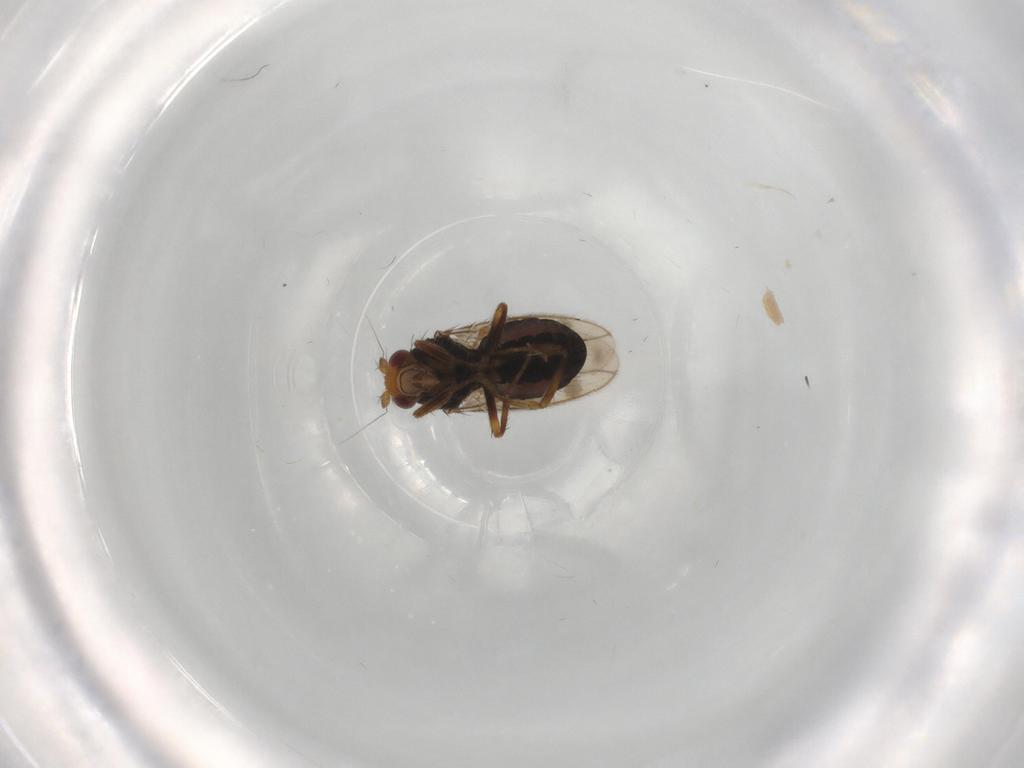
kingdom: Animalia
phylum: Arthropoda
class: Insecta
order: Diptera
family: Sphaeroceridae
